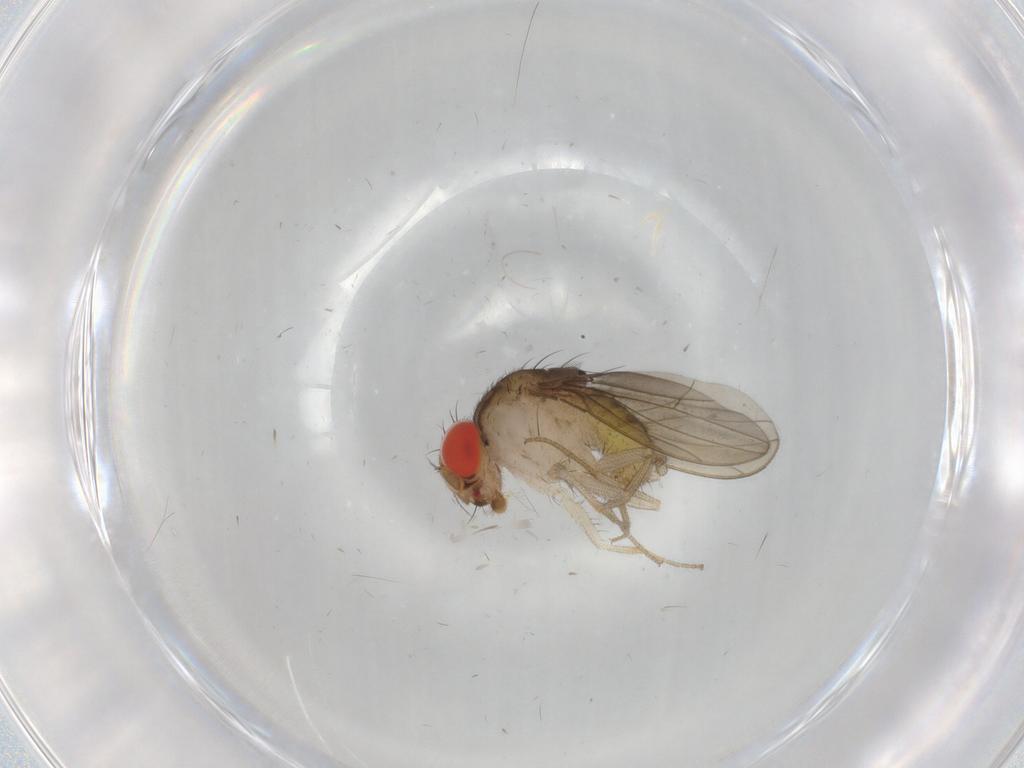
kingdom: Animalia
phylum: Arthropoda
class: Insecta
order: Diptera
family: Drosophilidae
